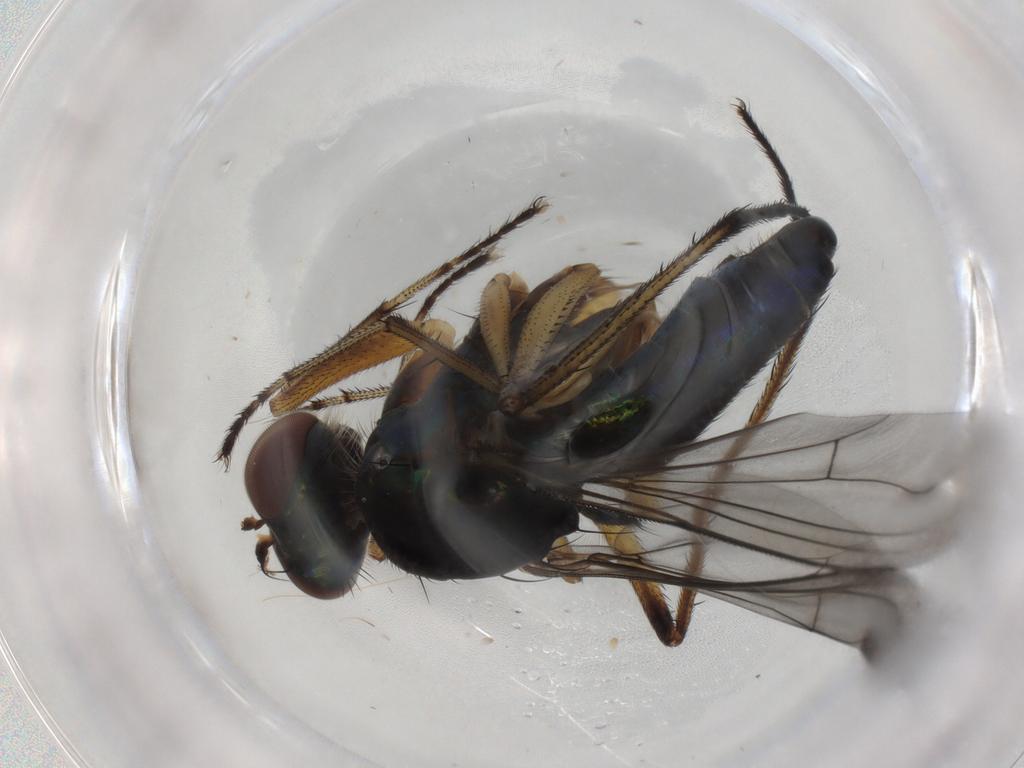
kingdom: Animalia
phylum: Arthropoda
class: Insecta
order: Diptera
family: Dolichopodidae
